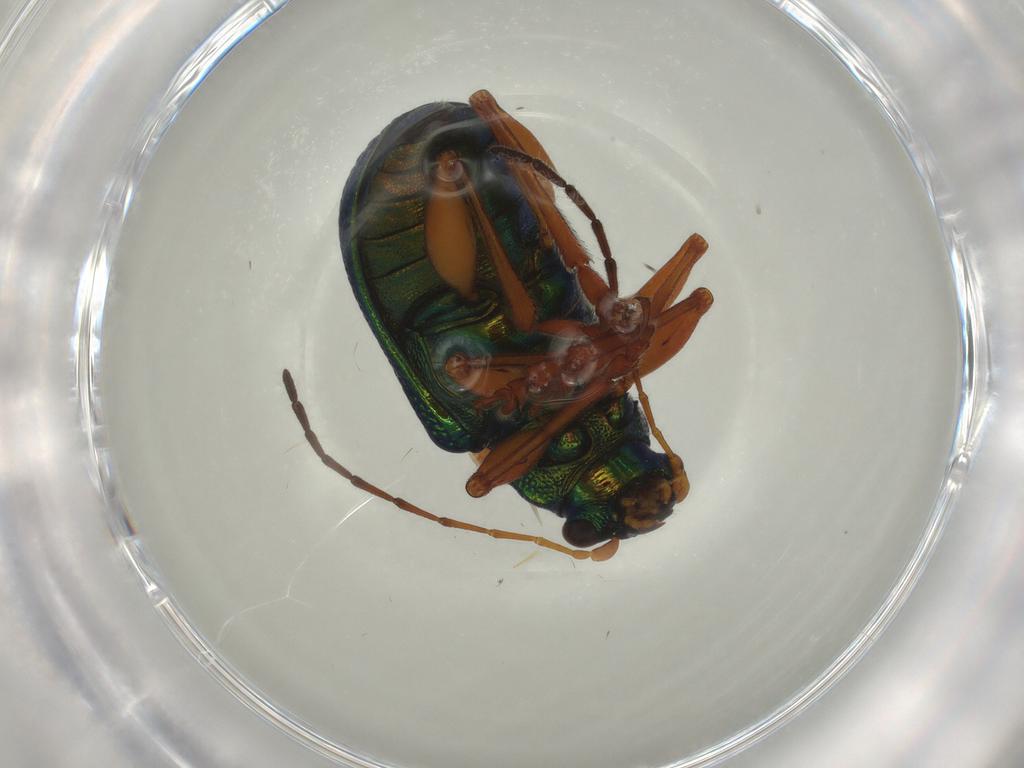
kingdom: Animalia
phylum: Arthropoda
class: Insecta
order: Coleoptera
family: Chrysomelidae
